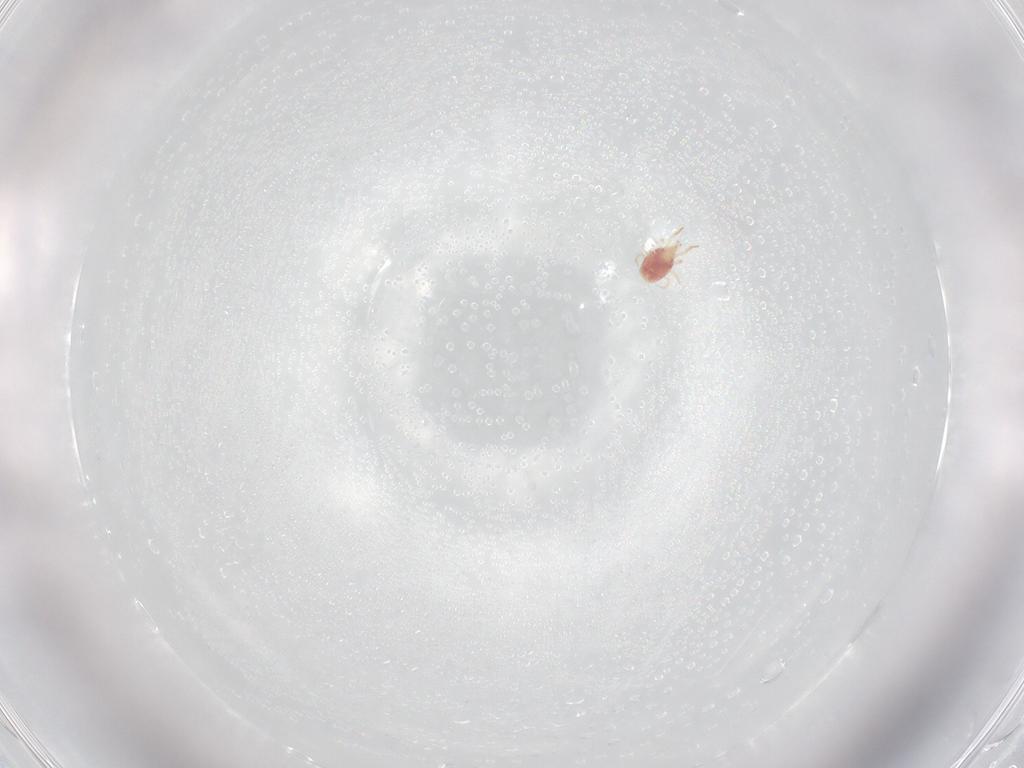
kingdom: Animalia
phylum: Arthropoda
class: Arachnida
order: Mesostigmata
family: Phytoseiidae
